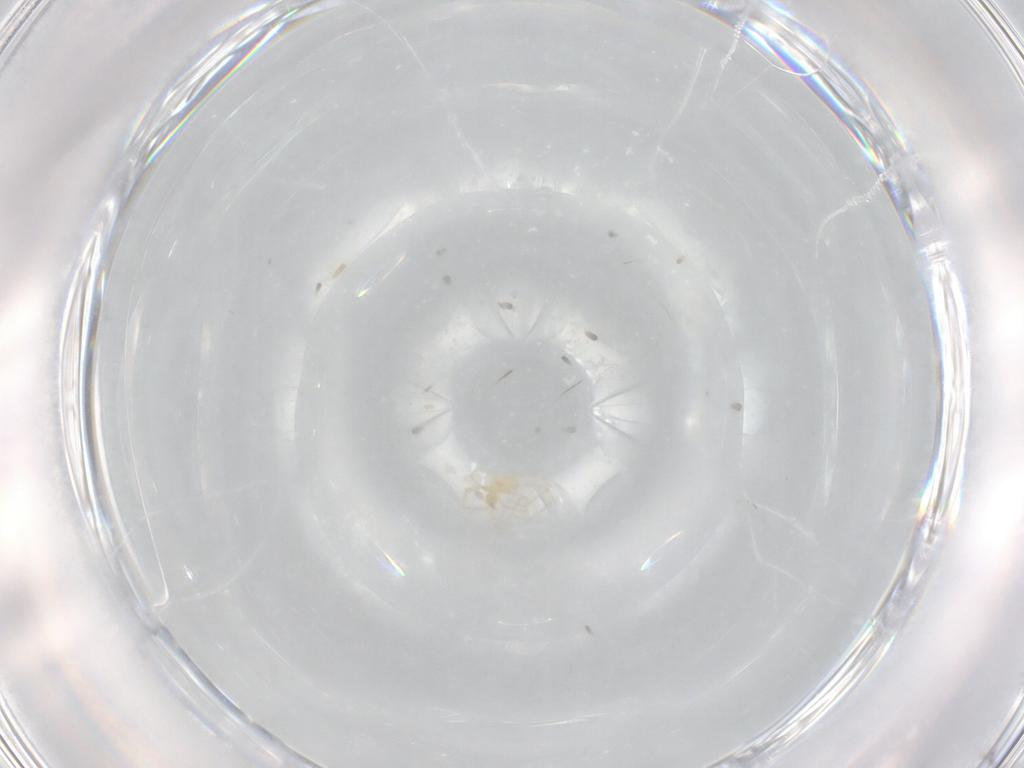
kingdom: Animalia
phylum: Arthropoda
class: Arachnida
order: Trombidiformes
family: Erythraeidae
